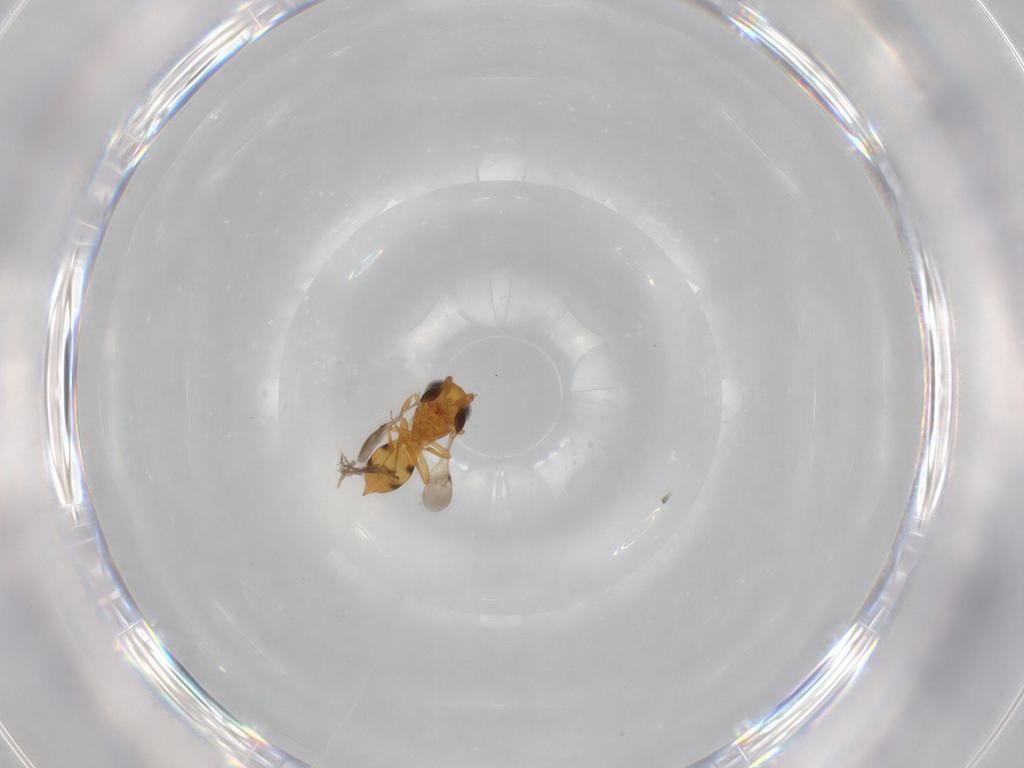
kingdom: Animalia
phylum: Arthropoda
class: Insecta
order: Hymenoptera
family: Scelionidae
